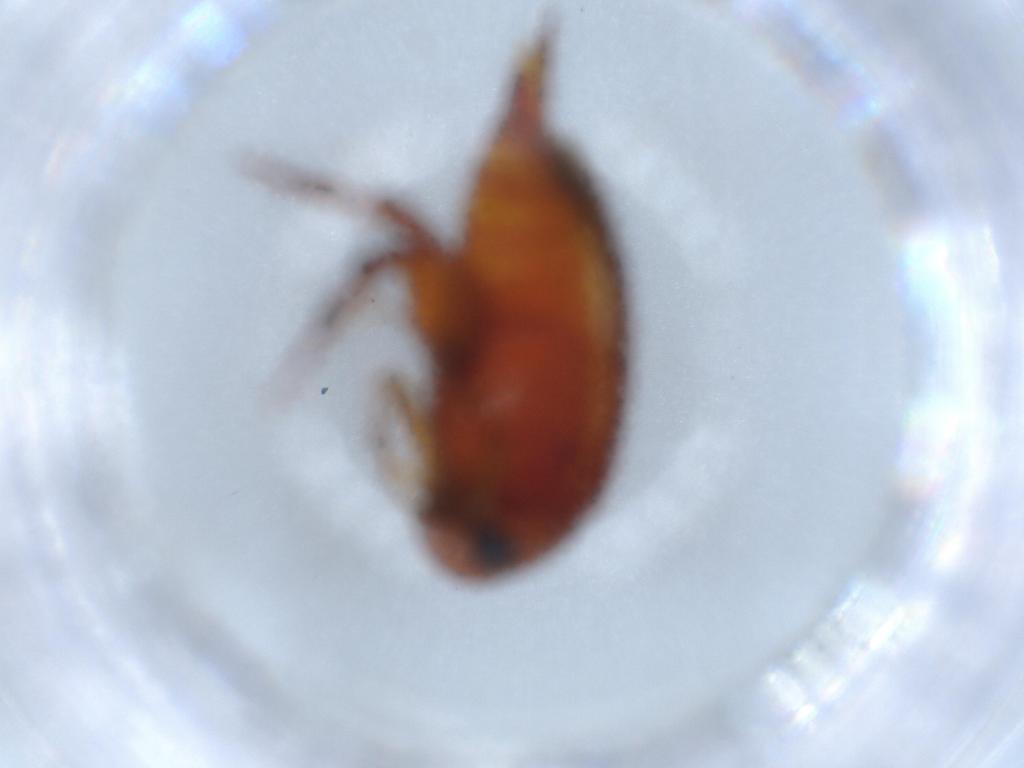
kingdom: Animalia
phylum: Arthropoda
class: Insecta
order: Coleoptera
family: Mordellidae
